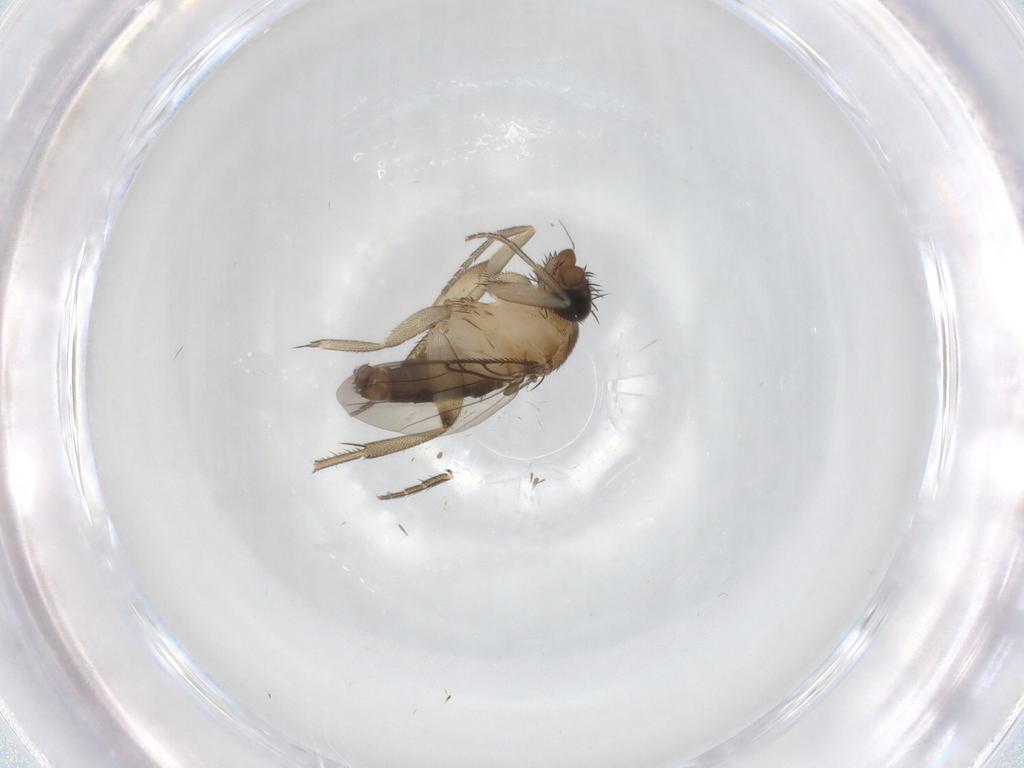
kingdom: Animalia
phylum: Arthropoda
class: Insecta
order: Diptera
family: Phoridae
